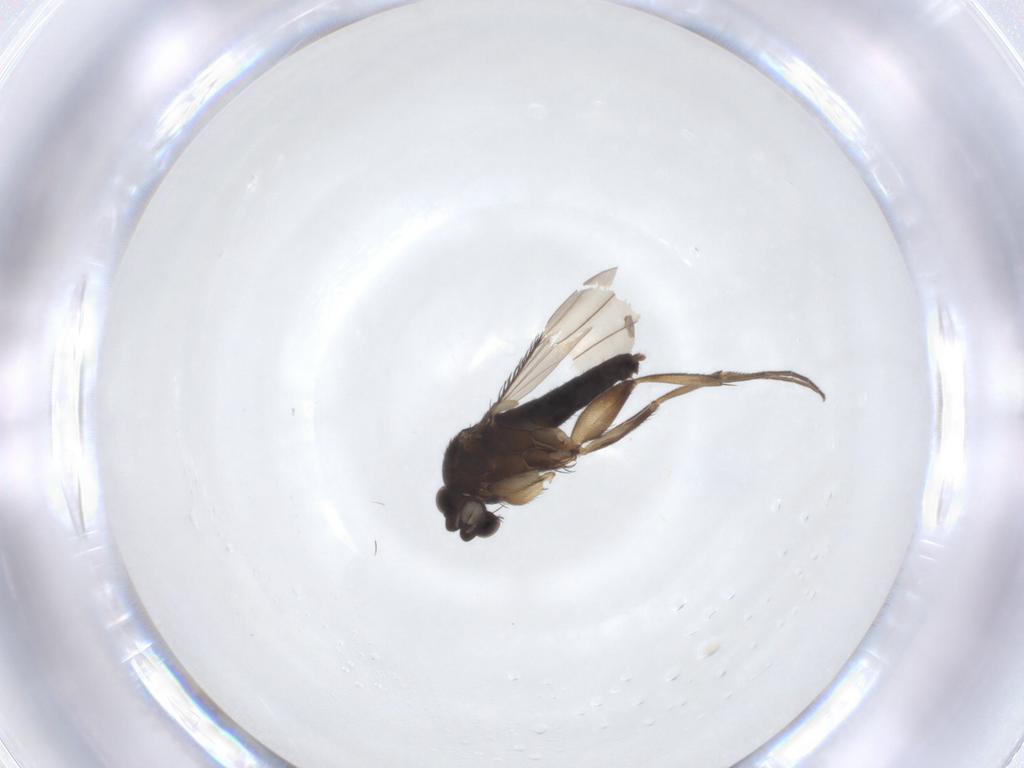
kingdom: Animalia
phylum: Arthropoda
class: Insecta
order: Diptera
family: Phoridae
